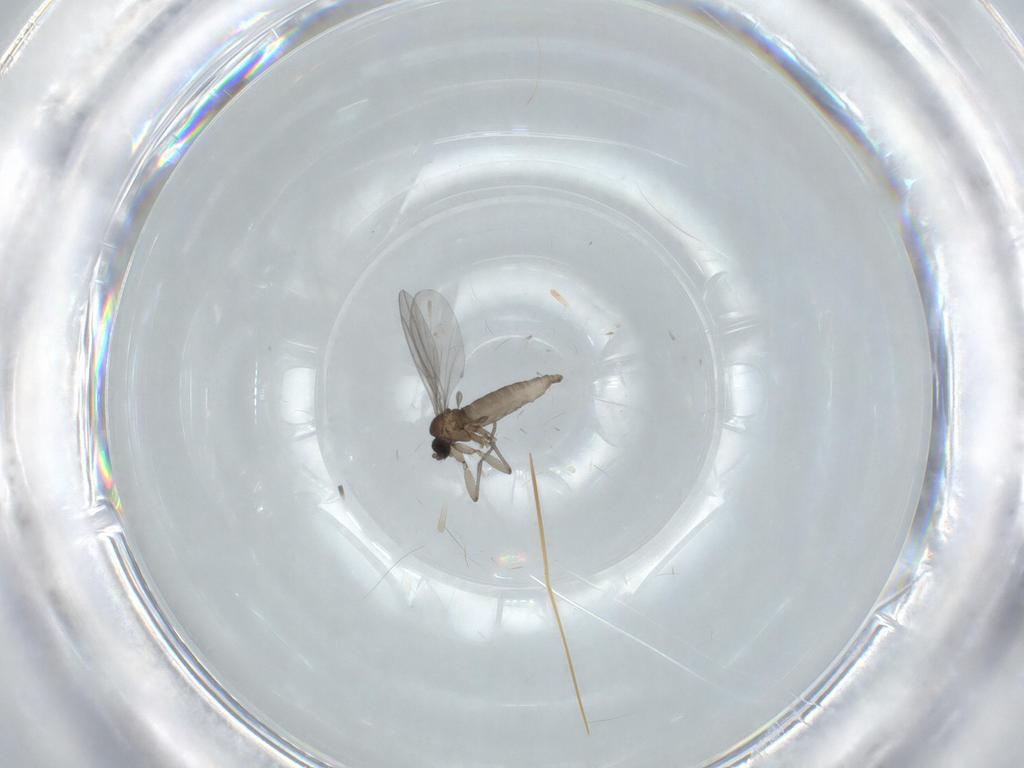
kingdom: Animalia
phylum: Arthropoda
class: Insecta
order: Diptera
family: Sciaridae
